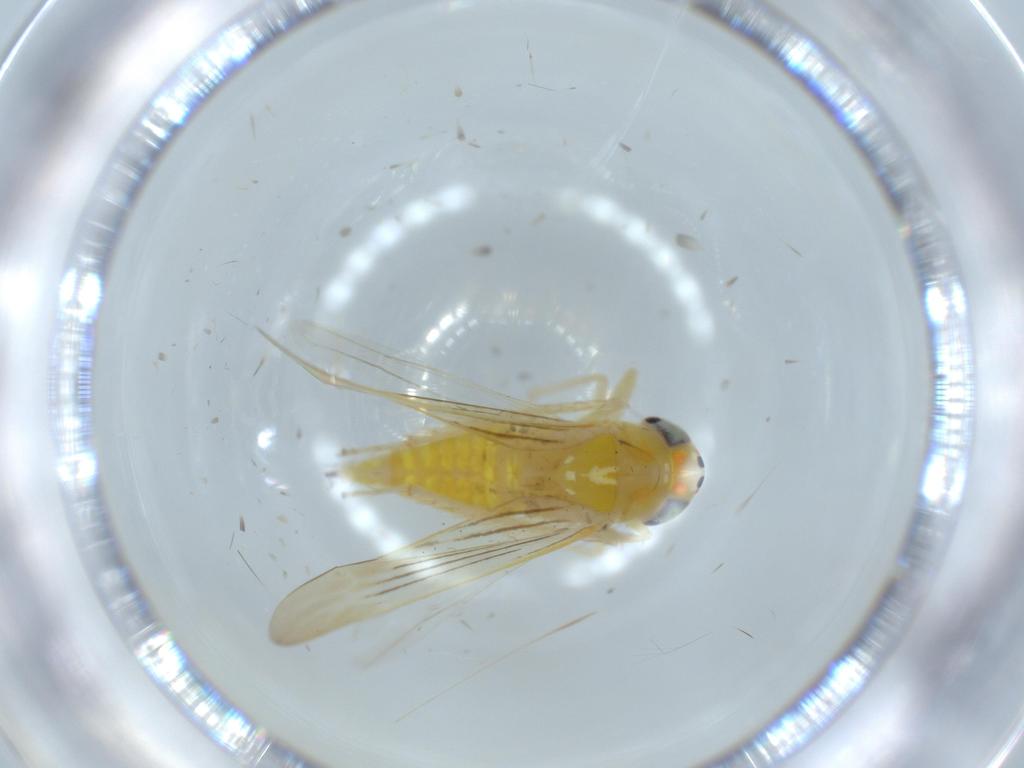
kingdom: Animalia
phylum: Arthropoda
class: Insecta
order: Hemiptera
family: Cicadellidae
